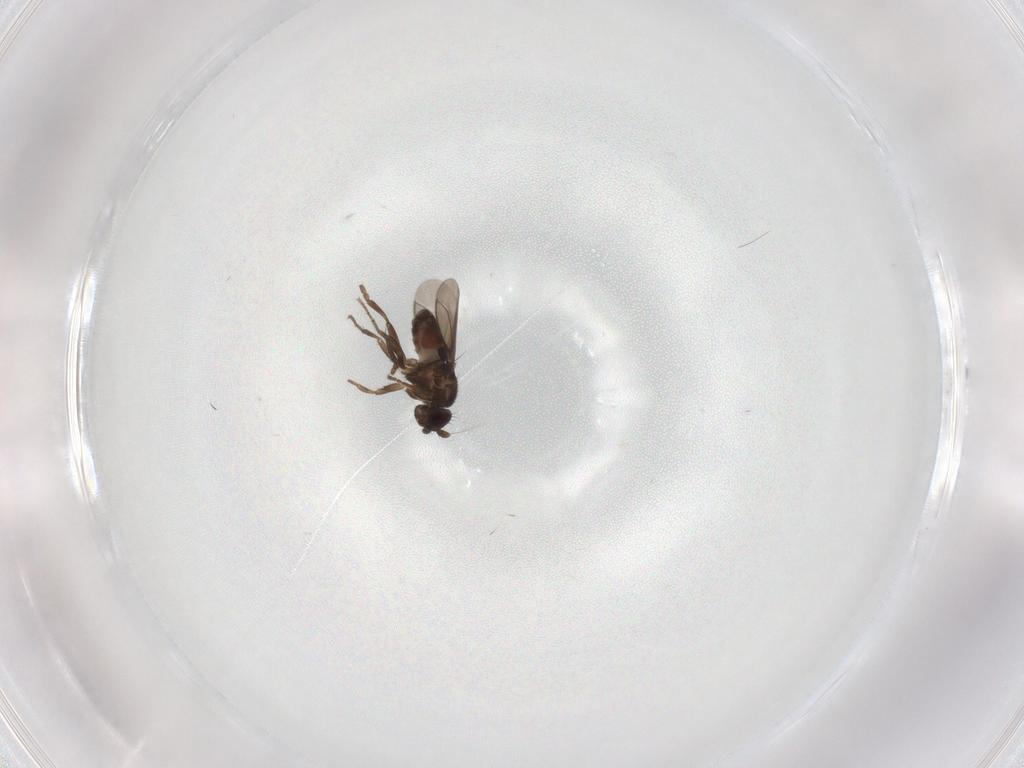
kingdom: Animalia
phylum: Arthropoda
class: Insecta
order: Diptera
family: Sphaeroceridae
